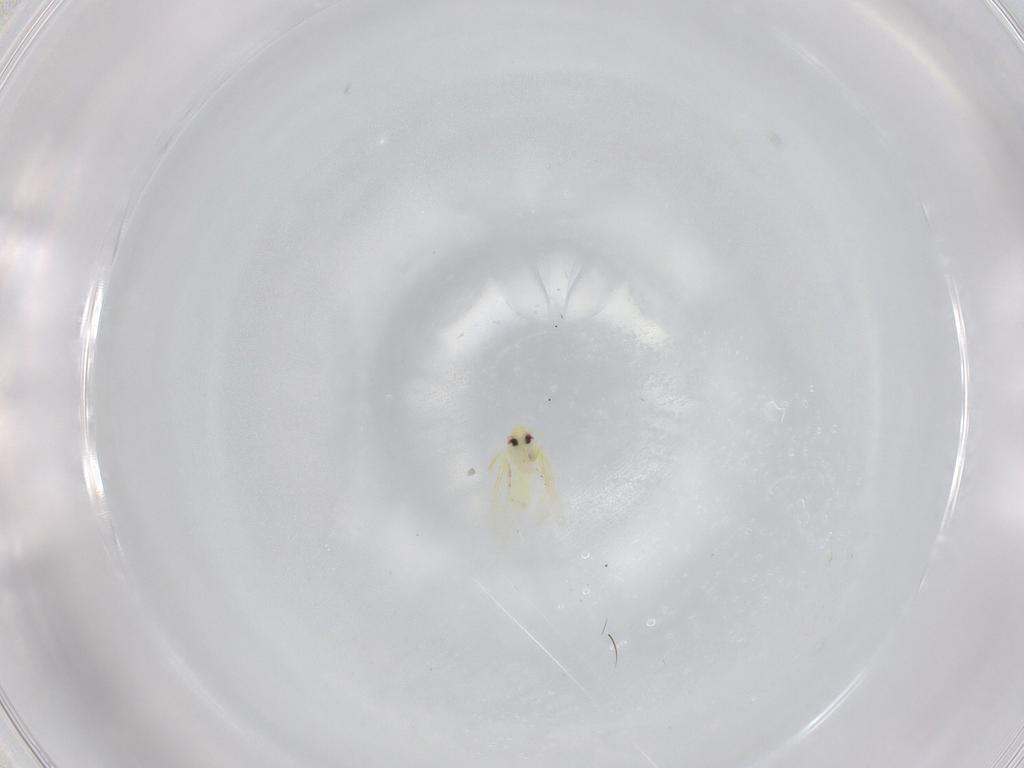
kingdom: Animalia
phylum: Arthropoda
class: Insecta
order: Hemiptera
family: Aleyrodidae
